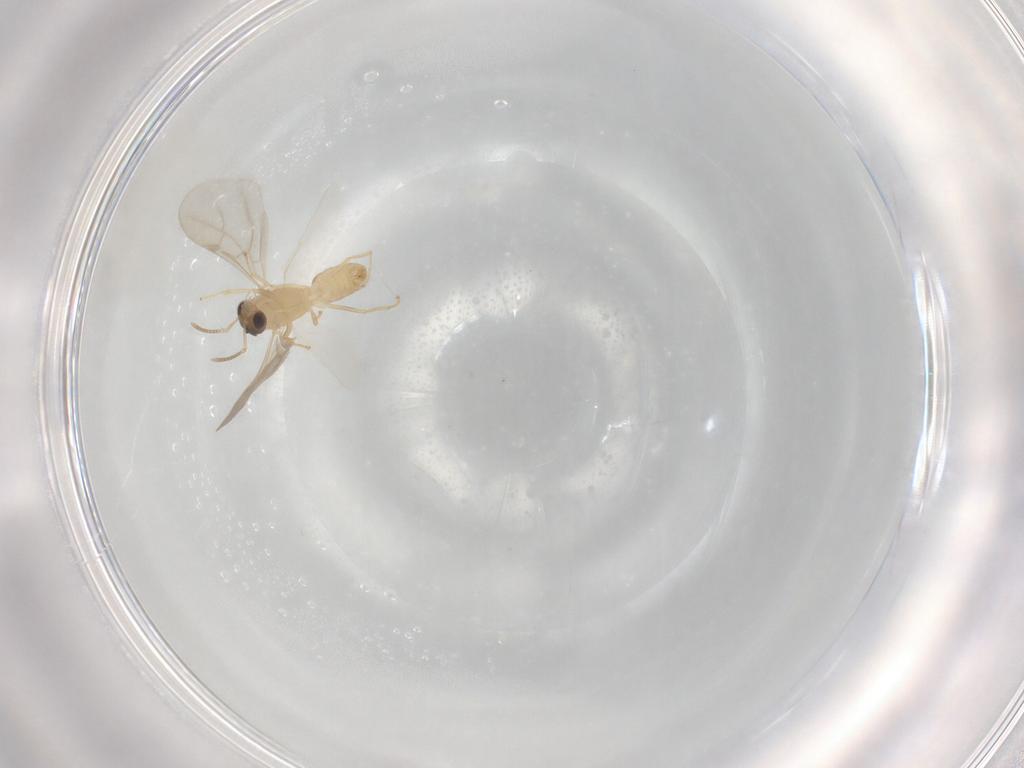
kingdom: Animalia
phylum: Arthropoda
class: Insecta
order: Hymenoptera
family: Formicidae
